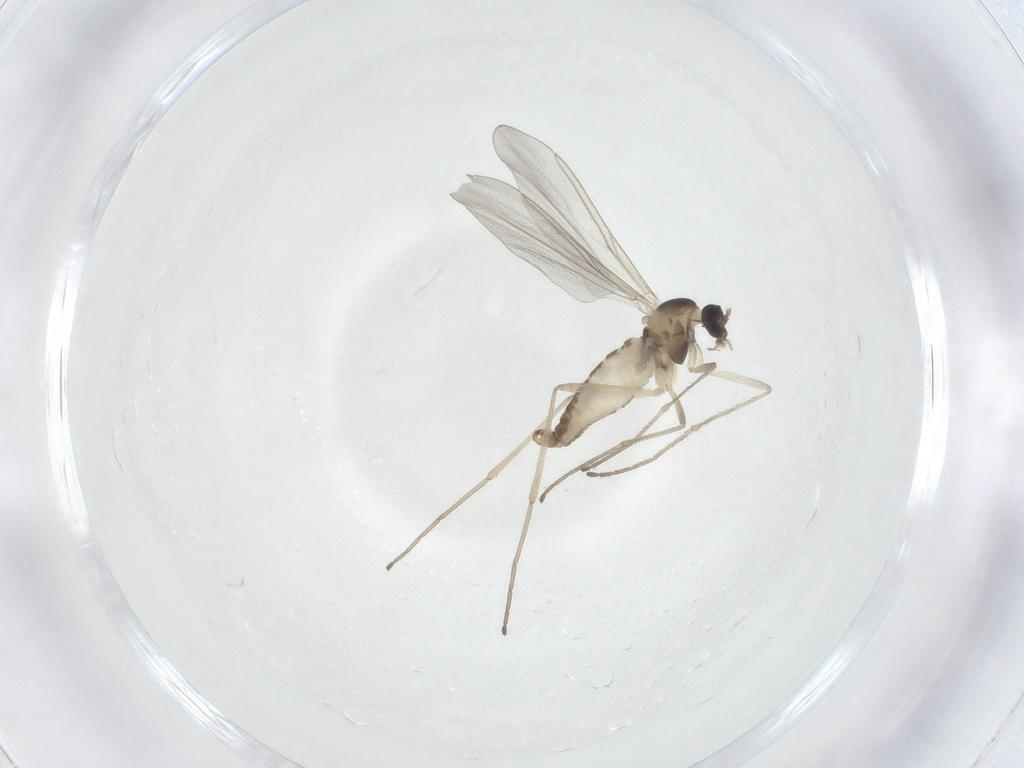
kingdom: Animalia
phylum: Arthropoda
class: Insecta
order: Diptera
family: Cecidomyiidae
